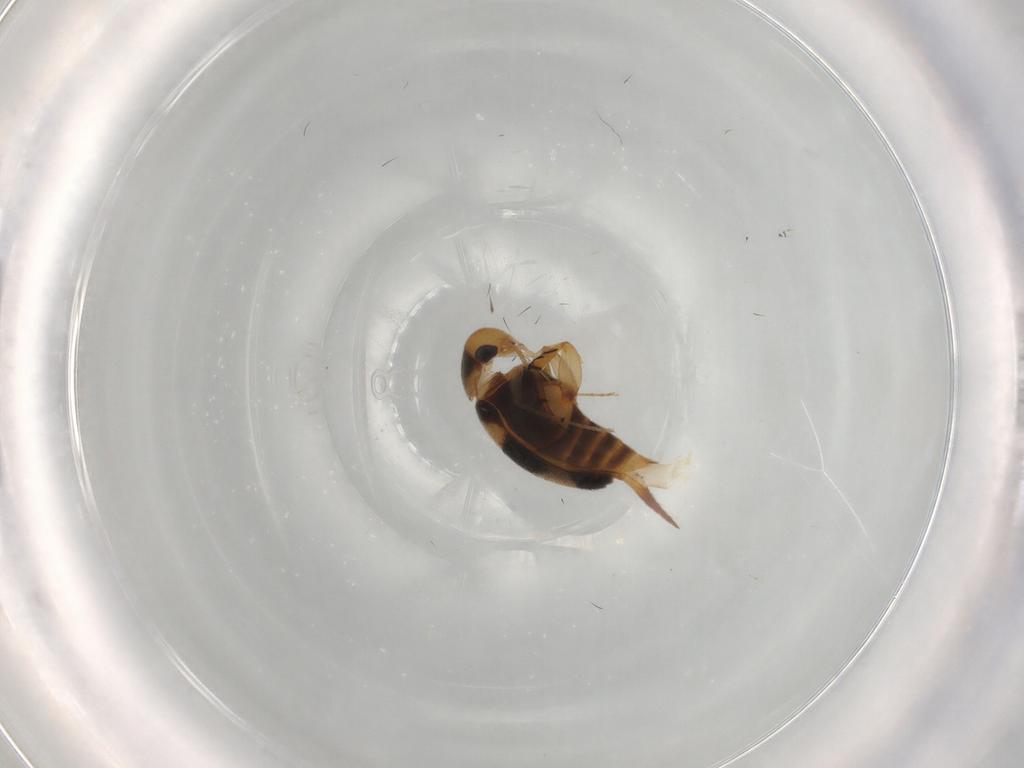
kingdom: Animalia
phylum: Arthropoda
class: Insecta
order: Coleoptera
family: Mordellidae
